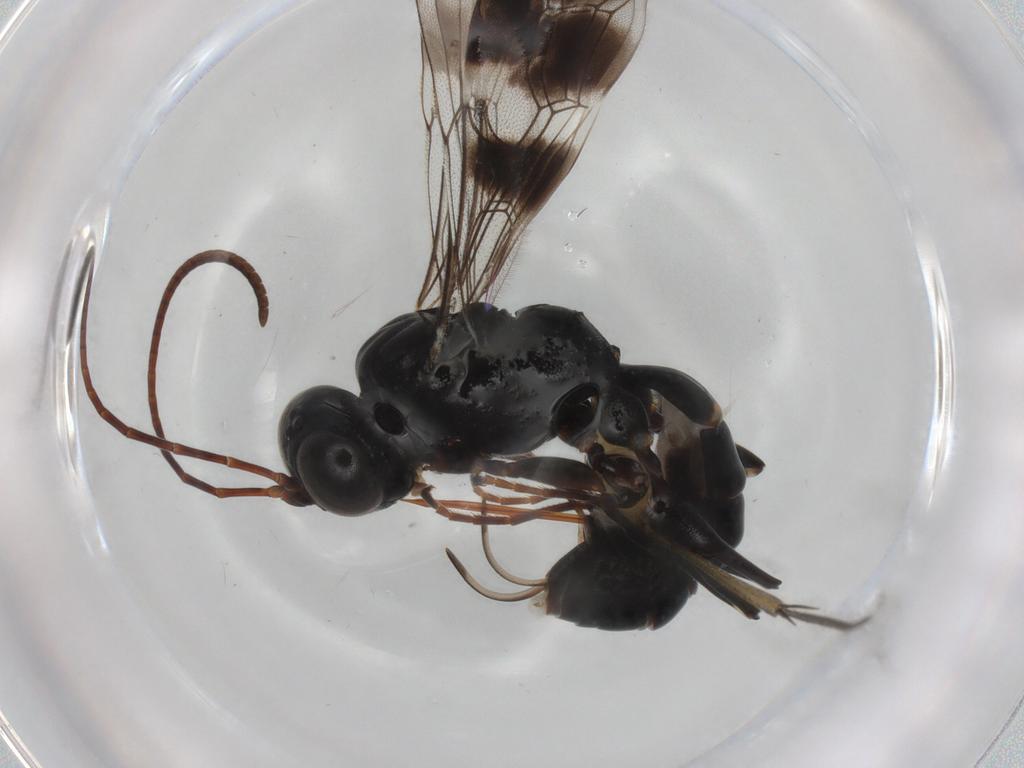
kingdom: Animalia
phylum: Arthropoda
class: Insecta
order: Hymenoptera
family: Ichneumonidae
